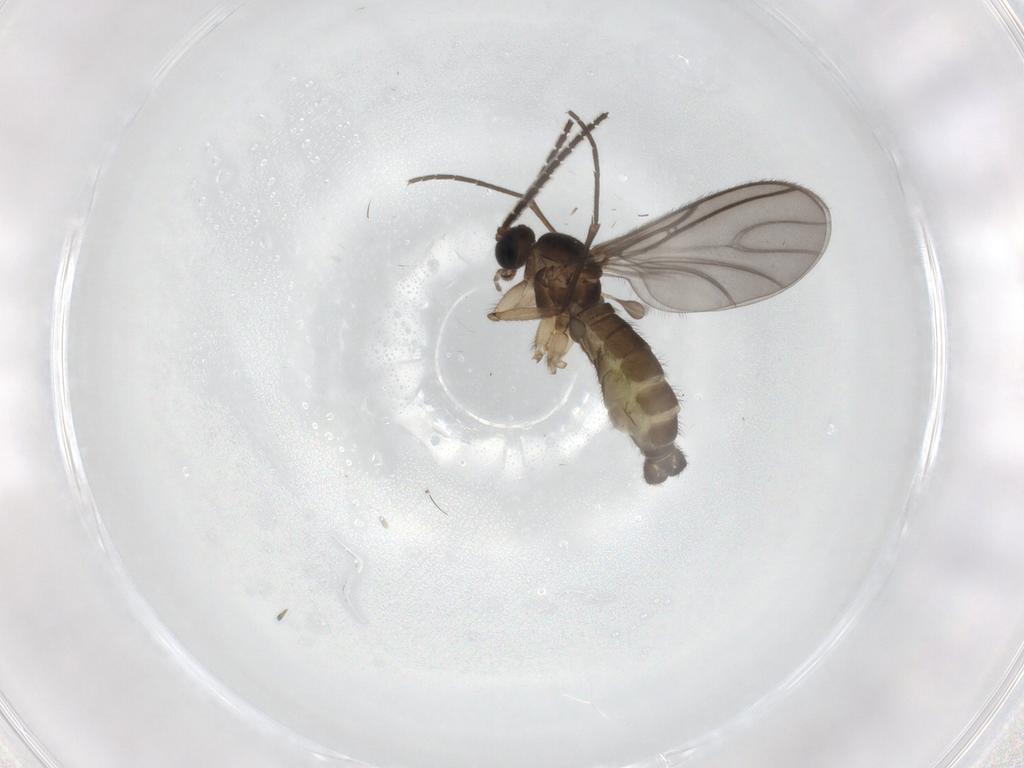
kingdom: Animalia
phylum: Arthropoda
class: Insecta
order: Diptera
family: Sciaridae
